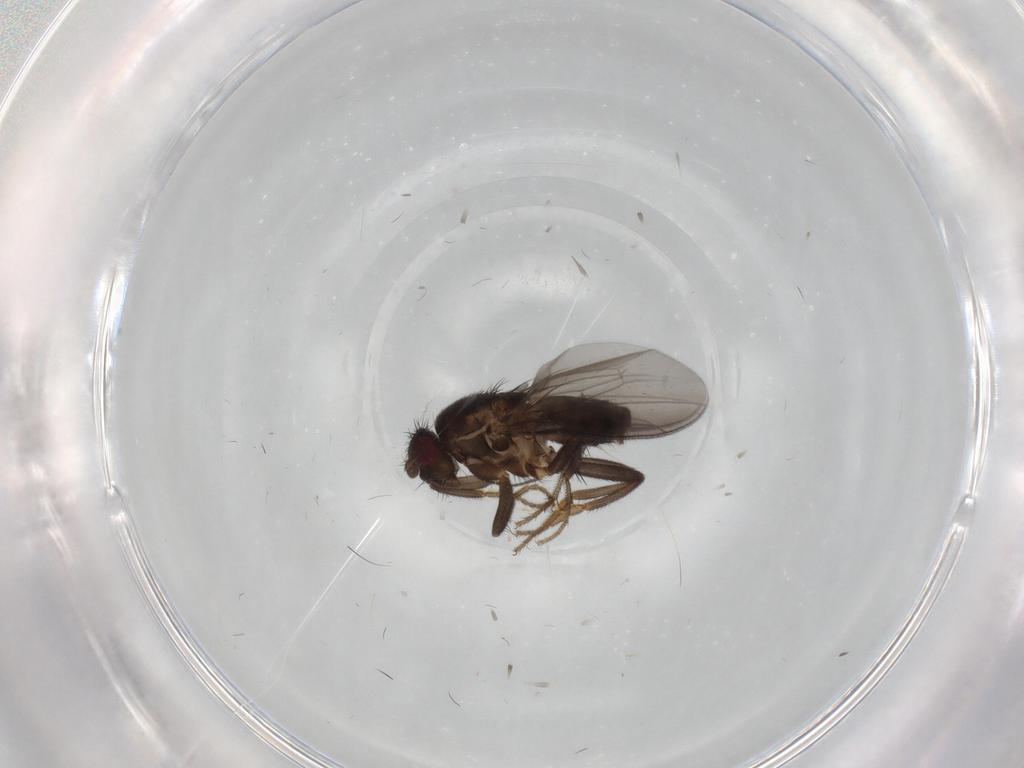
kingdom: Animalia
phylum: Arthropoda
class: Insecta
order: Diptera
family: Sphaeroceridae
